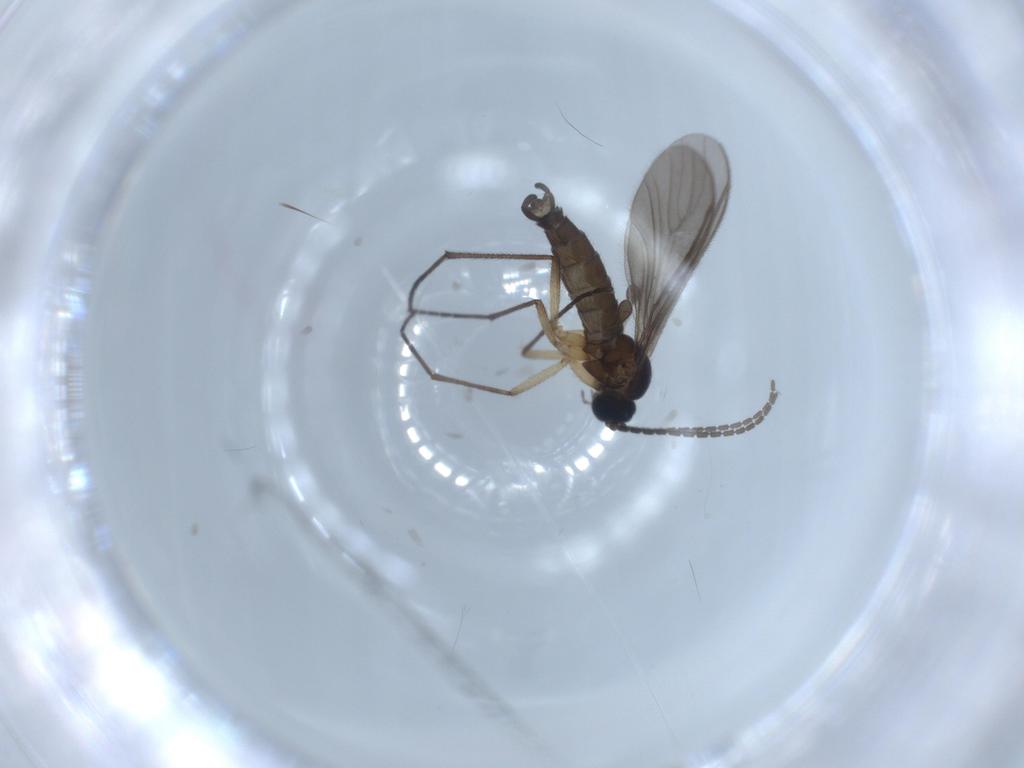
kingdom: Animalia
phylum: Arthropoda
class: Insecta
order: Diptera
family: Sciaridae
